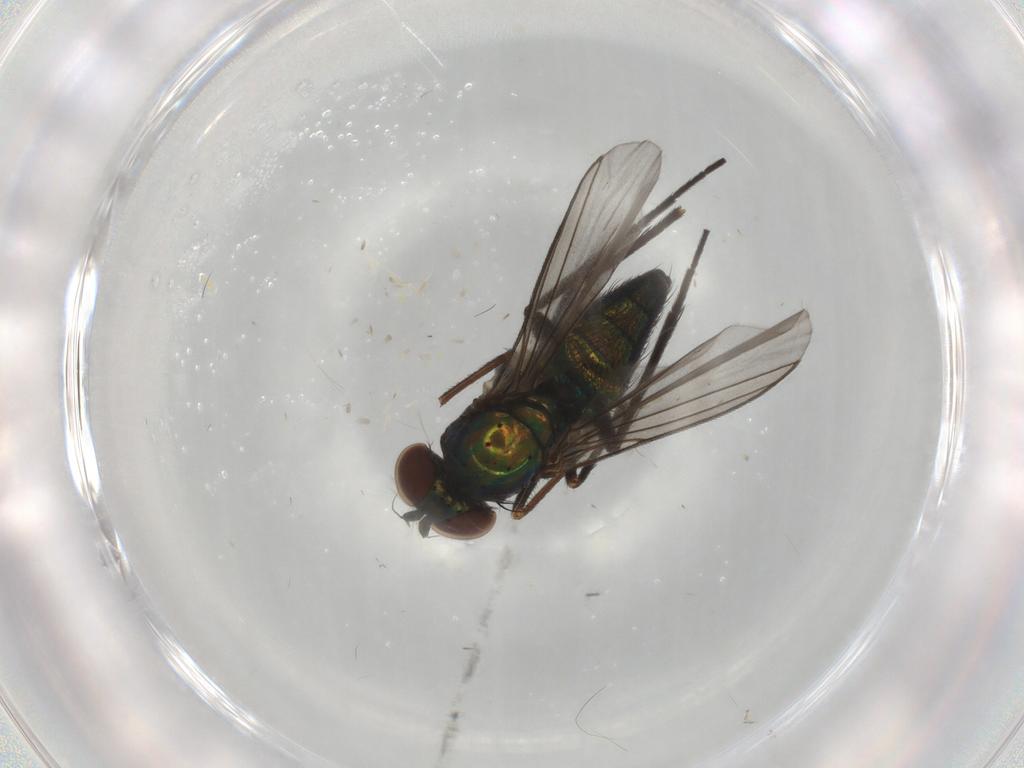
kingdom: Animalia
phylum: Arthropoda
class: Insecta
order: Diptera
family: Dolichopodidae
